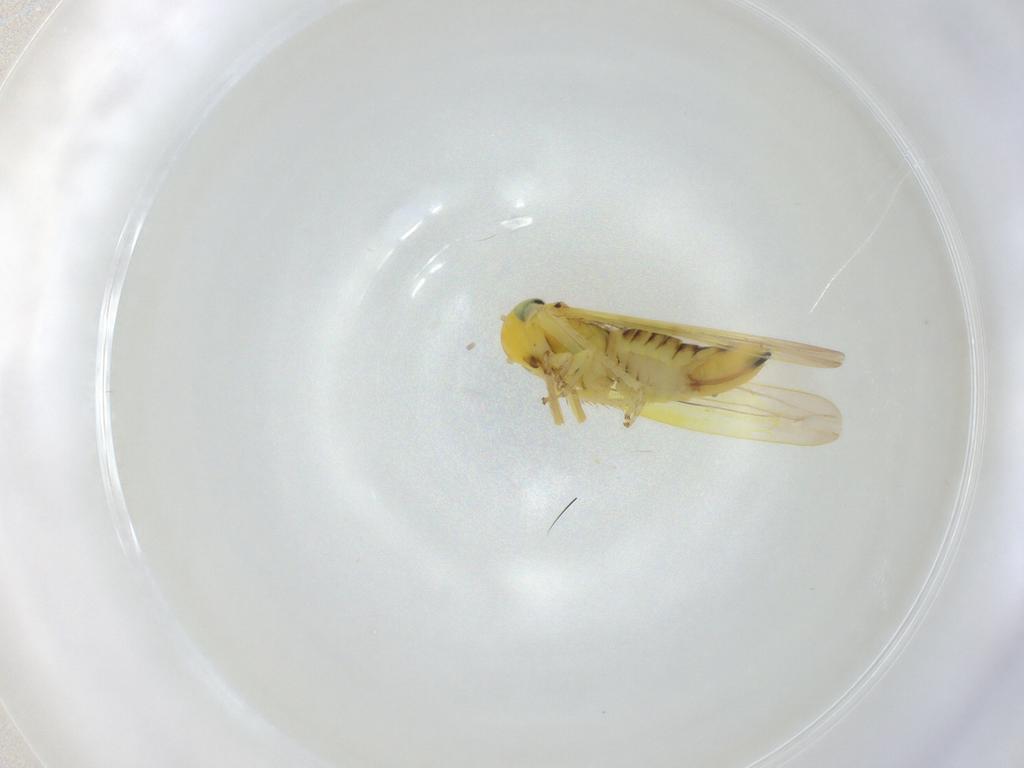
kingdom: Animalia
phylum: Arthropoda
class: Insecta
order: Hemiptera
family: Cicadellidae
